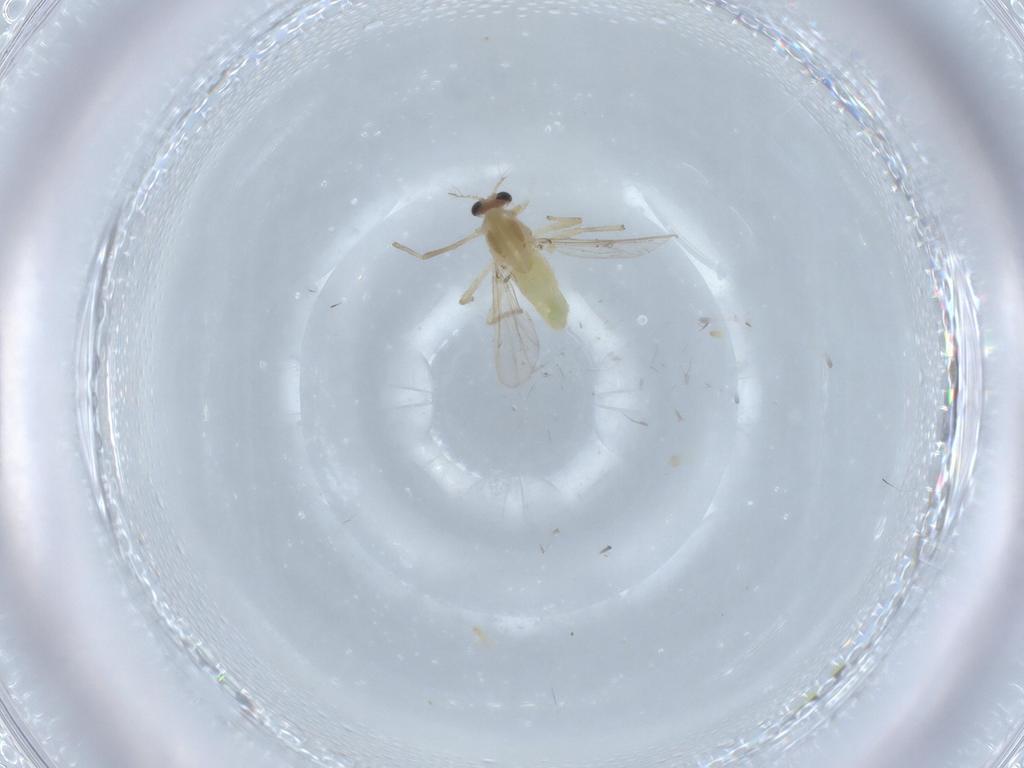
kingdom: Animalia
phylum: Arthropoda
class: Insecta
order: Diptera
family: Chironomidae
